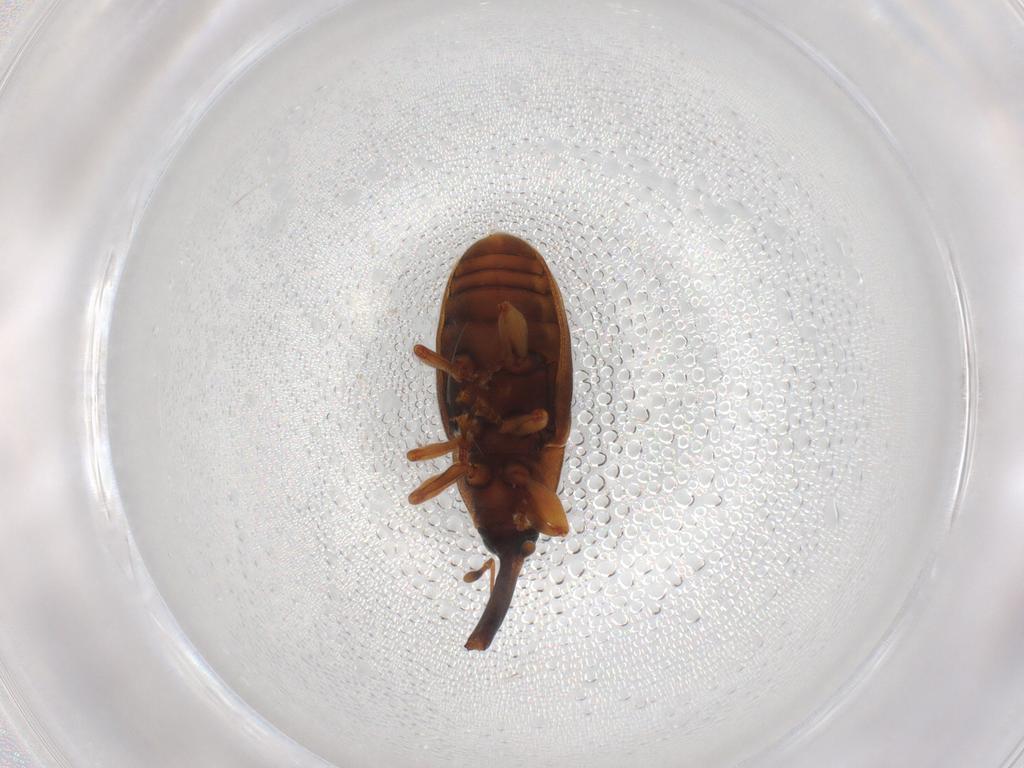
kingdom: Animalia
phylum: Arthropoda
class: Insecta
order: Coleoptera
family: Curculionidae
